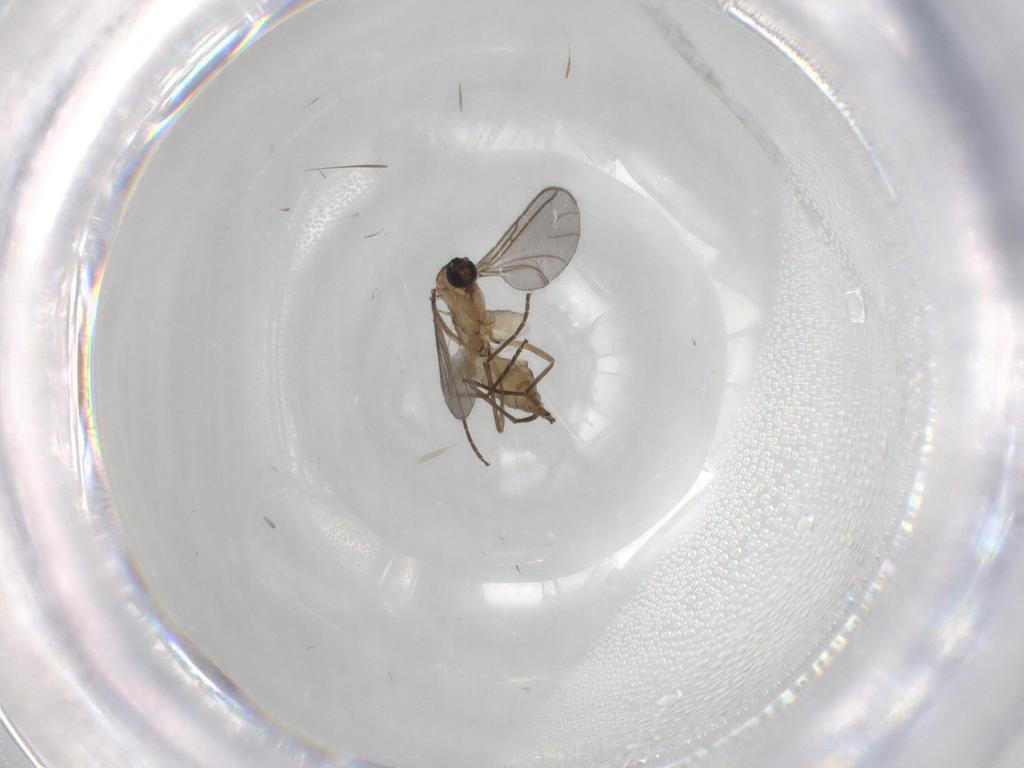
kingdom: Animalia
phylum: Arthropoda
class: Insecta
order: Diptera
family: Sciaridae
